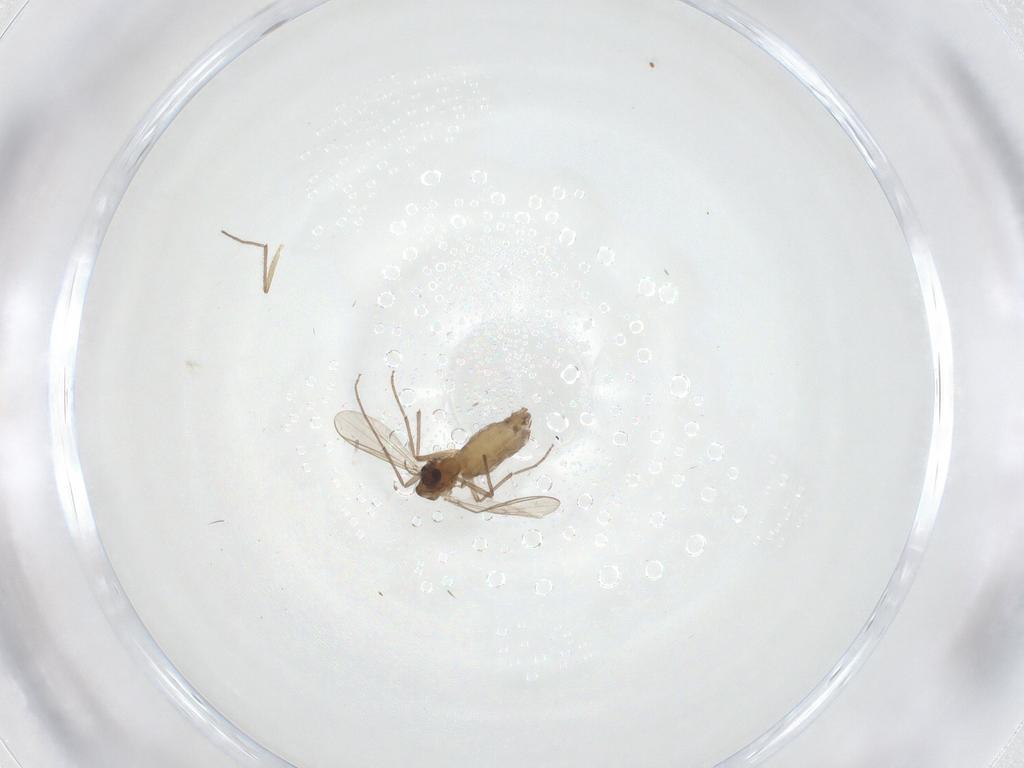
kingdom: Animalia
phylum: Arthropoda
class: Insecta
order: Diptera
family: Chironomidae
